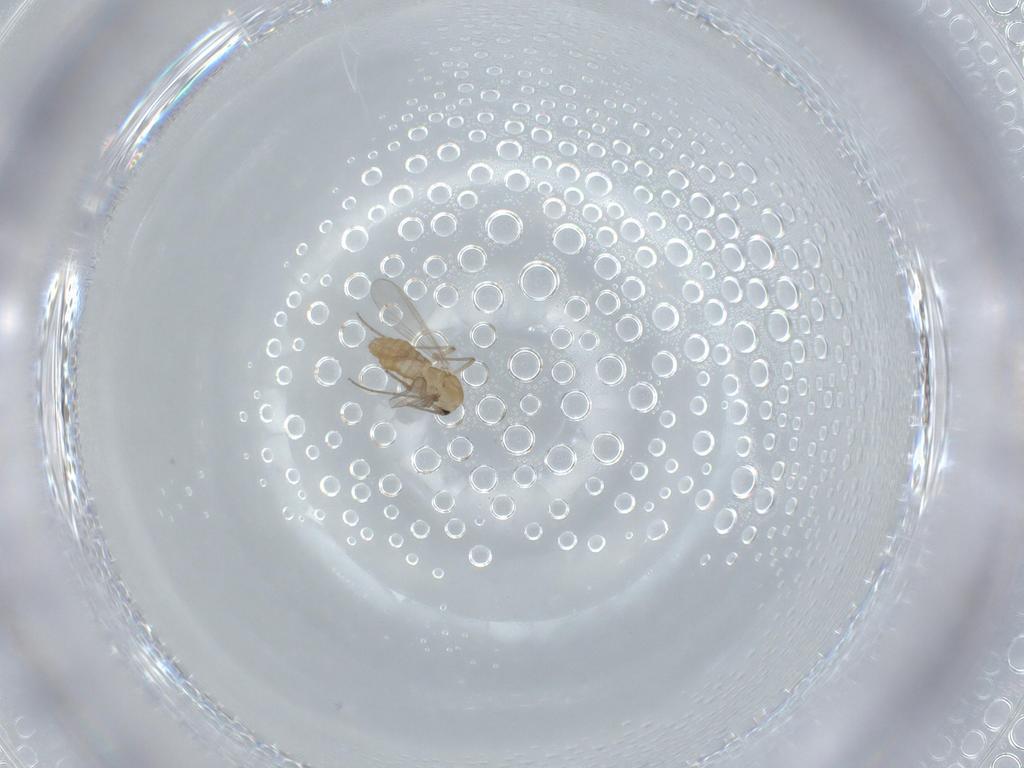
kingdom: Animalia
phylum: Arthropoda
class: Insecta
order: Diptera
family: Chironomidae
